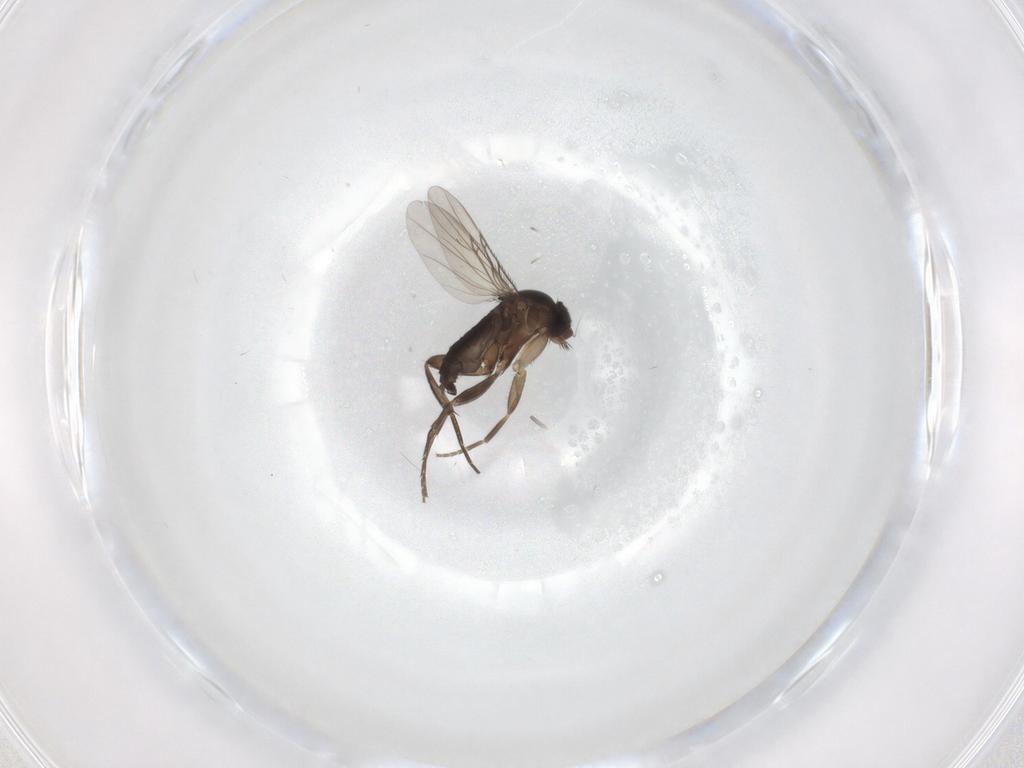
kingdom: Animalia
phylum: Arthropoda
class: Insecta
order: Diptera
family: Phoridae
